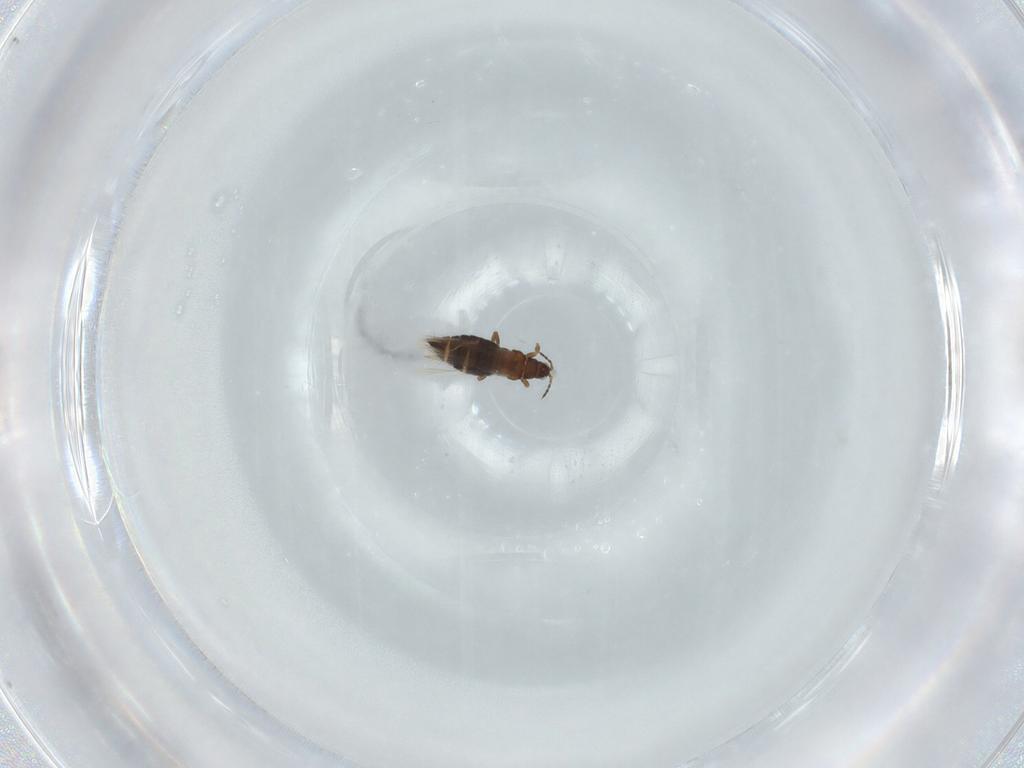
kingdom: Animalia
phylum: Arthropoda
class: Insecta
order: Thysanoptera
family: Thripidae
